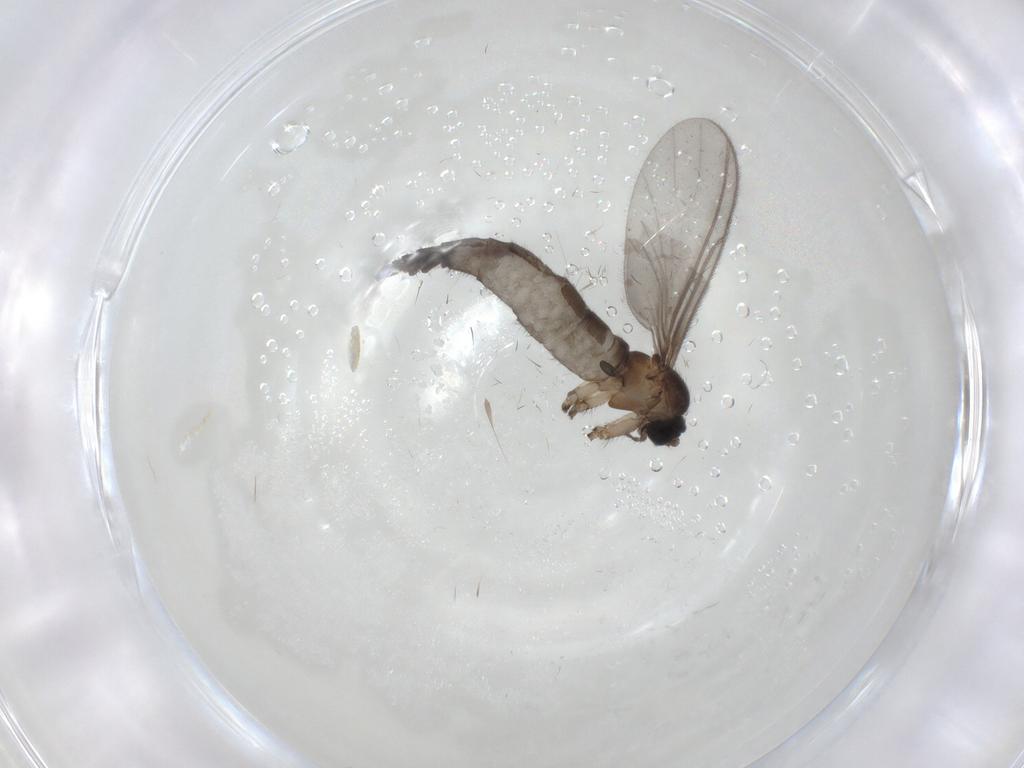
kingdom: Animalia
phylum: Arthropoda
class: Insecta
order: Diptera
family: Psychodidae
